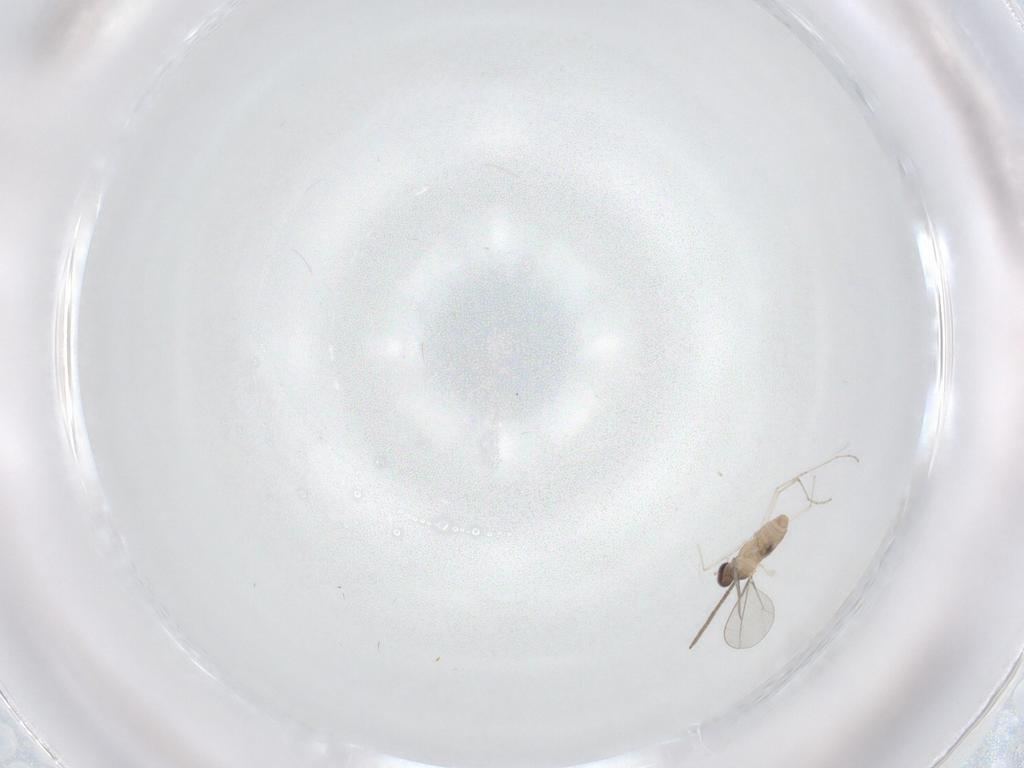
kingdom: Animalia
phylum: Arthropoda
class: Insecta
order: Diptera
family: Cecidomyiidae
